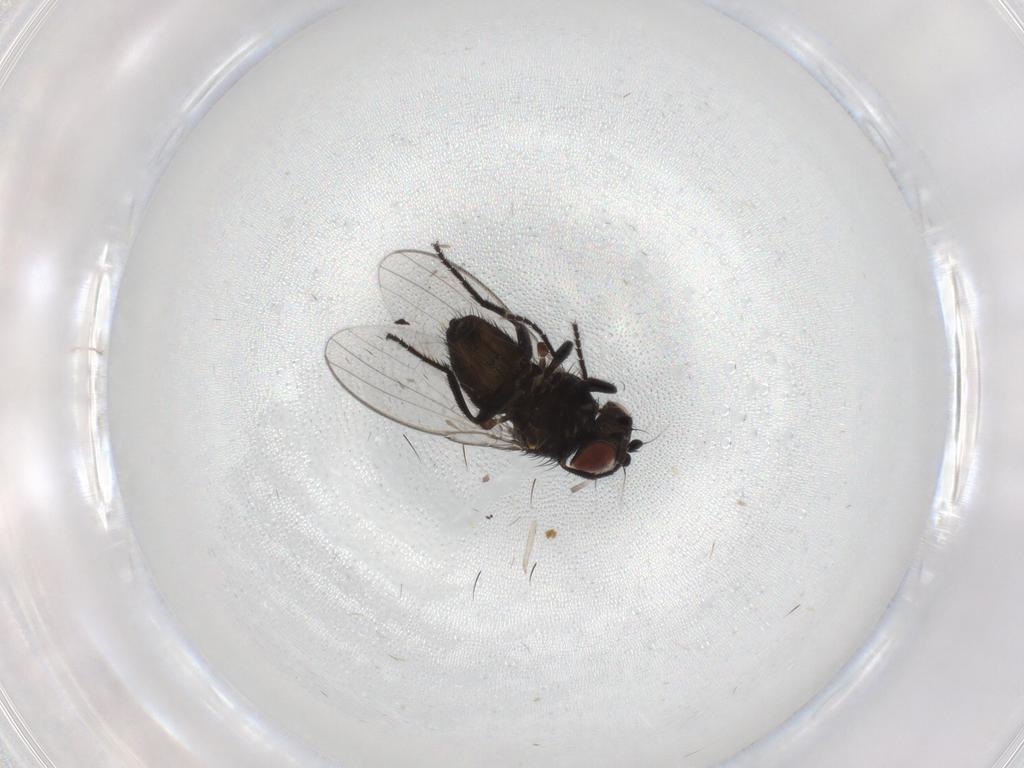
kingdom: Animalia
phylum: Arthropoda
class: Insecta
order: Diptera
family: Milichiidae
